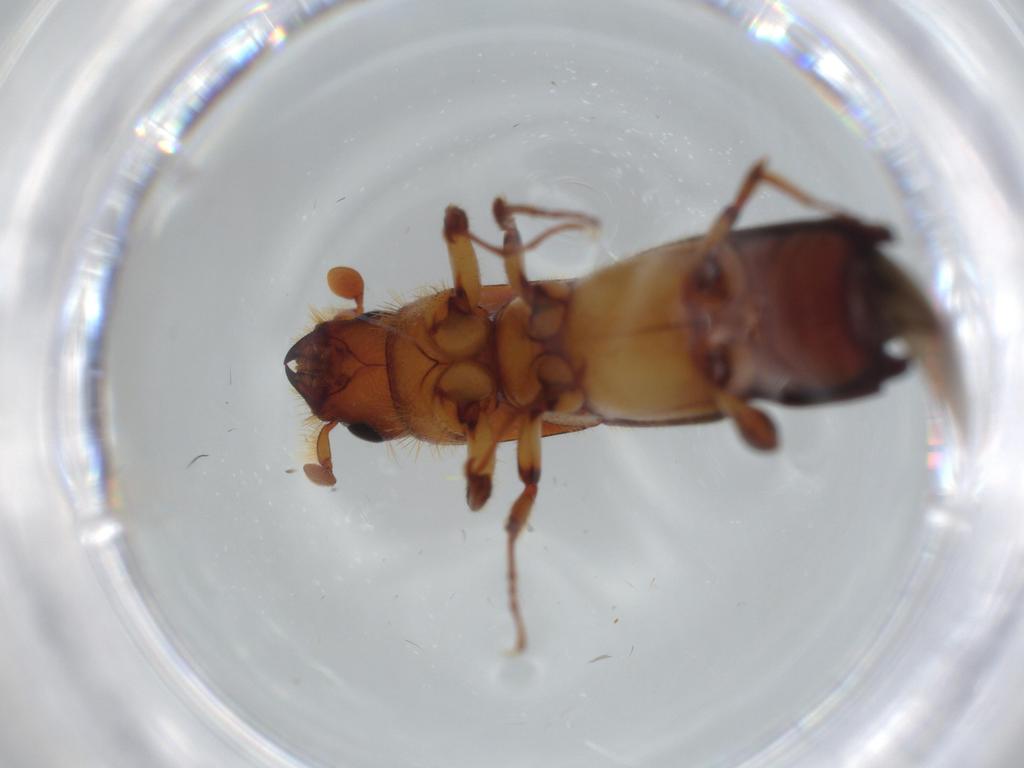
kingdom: Animalia
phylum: Arthropoda
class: Insecta
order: Coleoptera
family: Curculionidae
